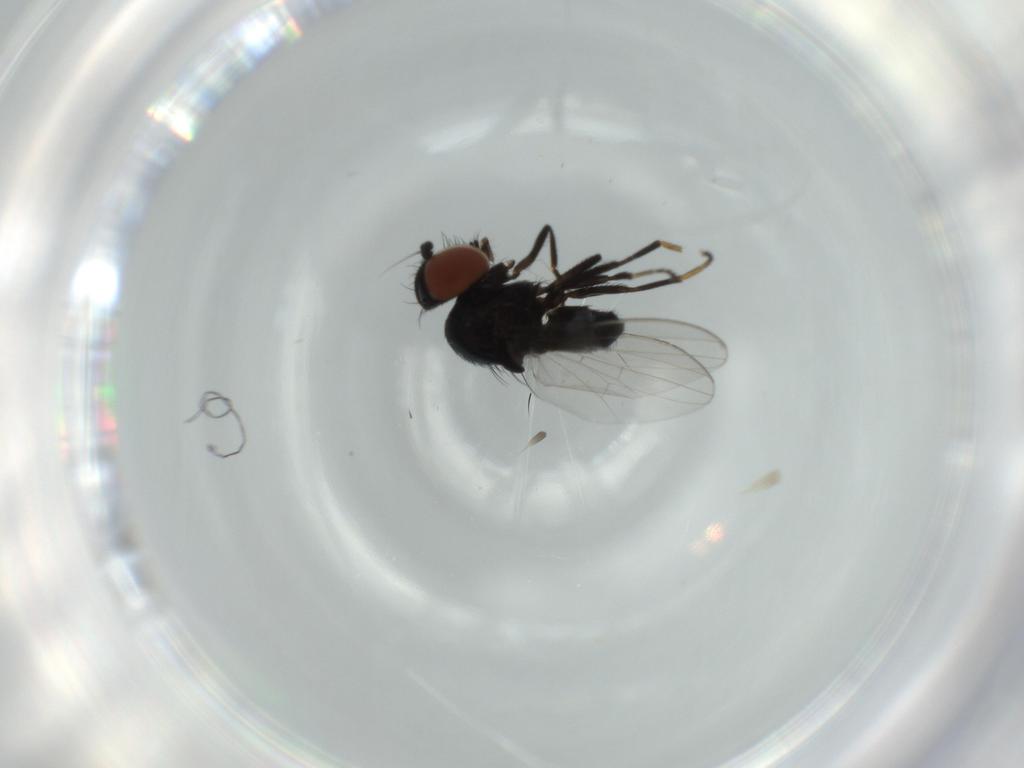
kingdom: Animalia
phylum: Arthropoda
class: Insecta
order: Diptera
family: Milichiidae
